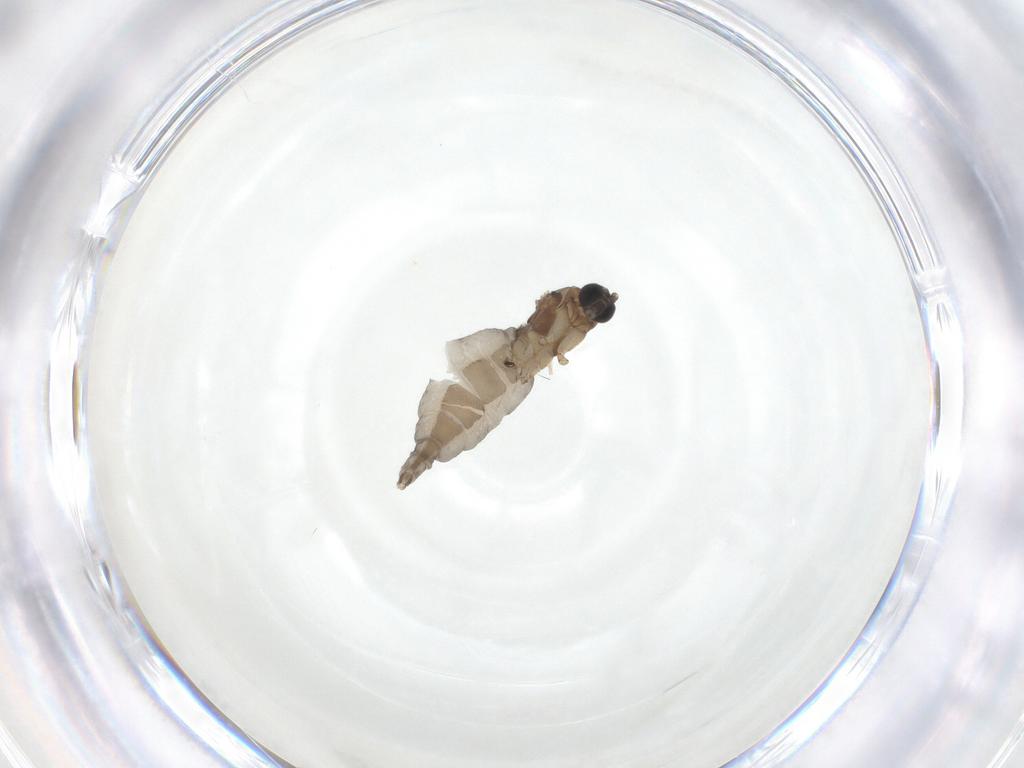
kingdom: Animalia
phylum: Arthropoda
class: Insecta
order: Diptera
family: Sciaridae
